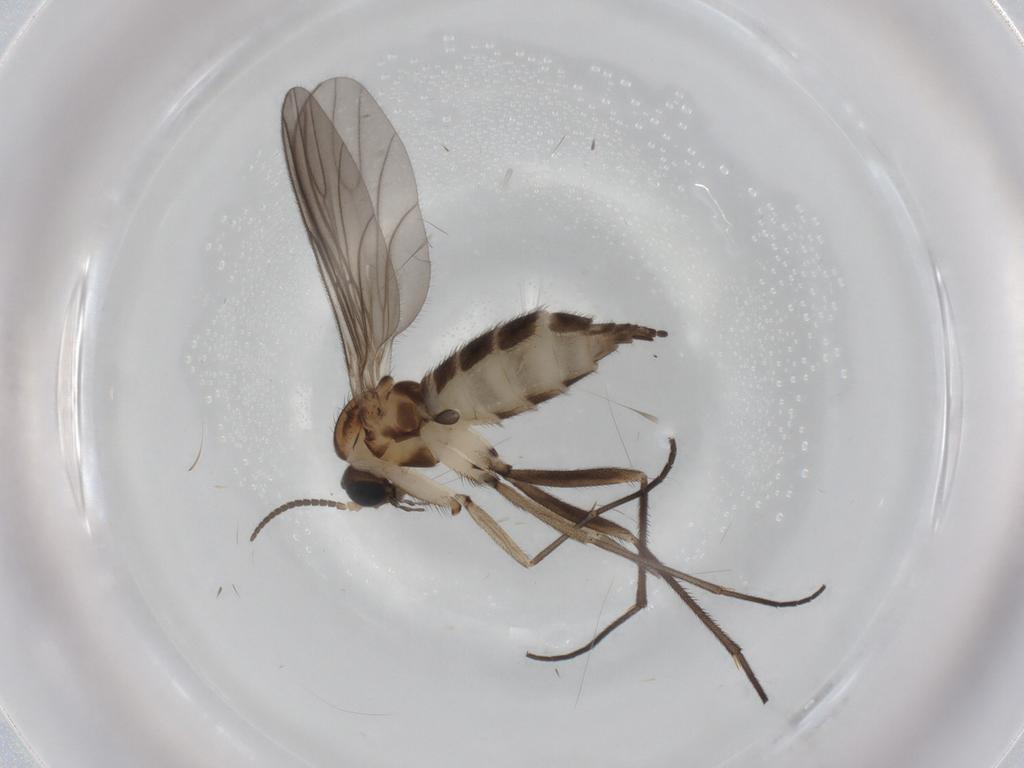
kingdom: Animalia
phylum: Arthropoda
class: Insecta
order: Diptera
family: Sciaridae
